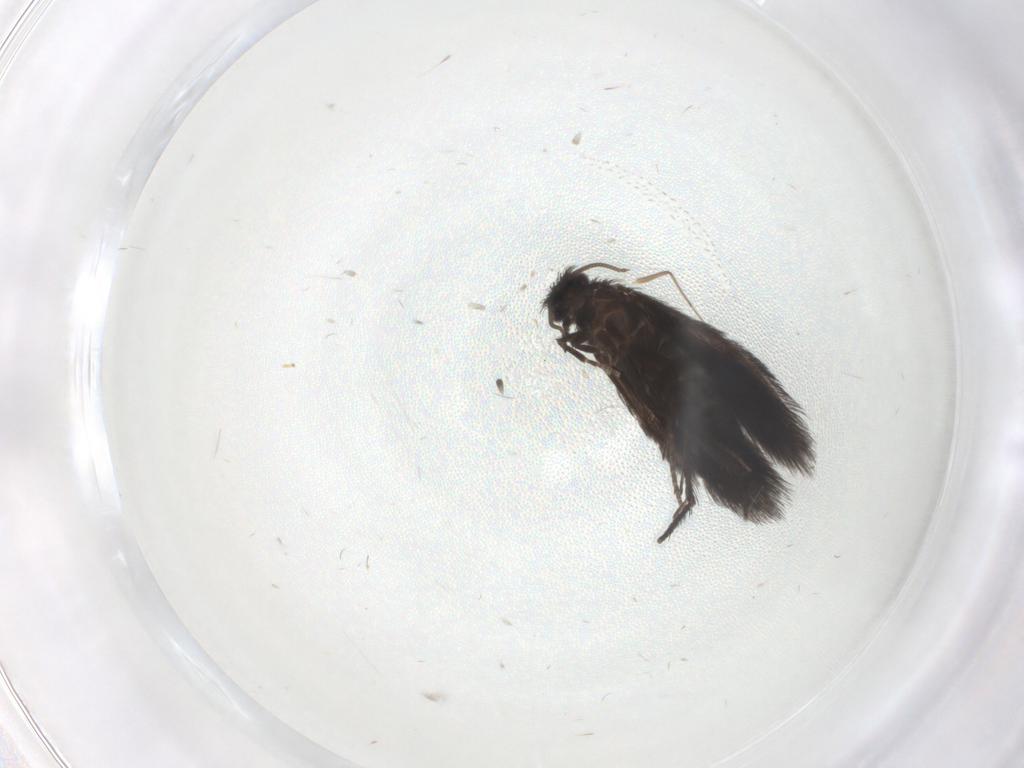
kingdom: Animalia
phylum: Arthropoda
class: Insecta
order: Trichoptera
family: Hydroptilidae
